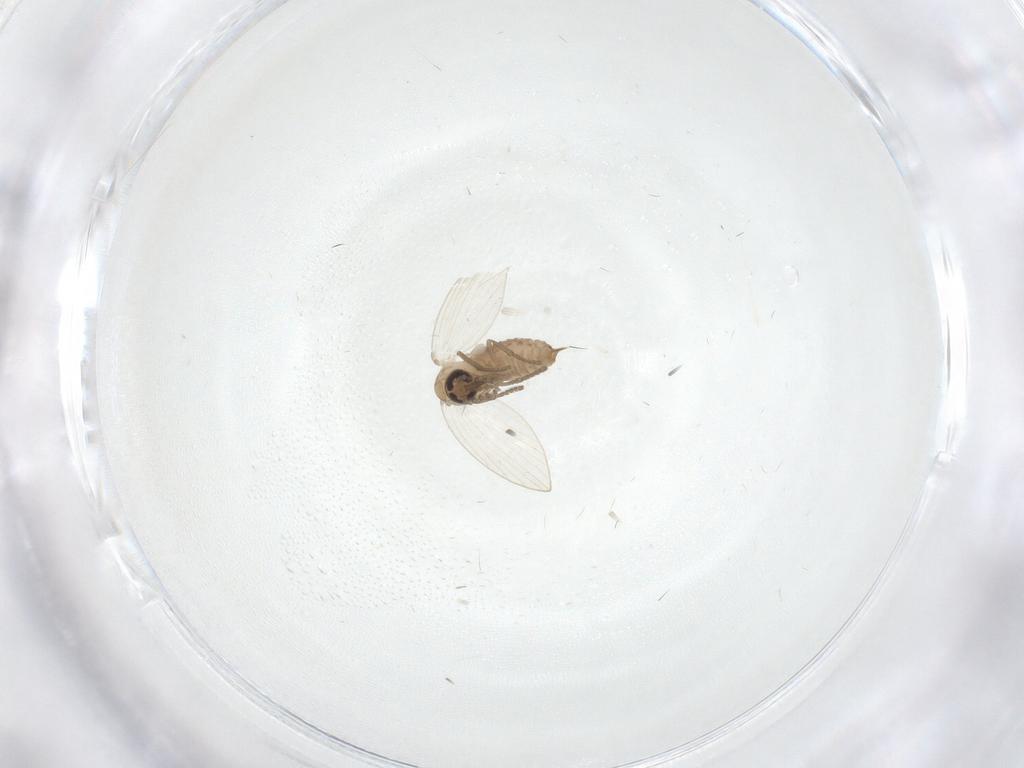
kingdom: Animalia
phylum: Arthropoda
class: Insecta
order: Diptera
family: Psychodidae
